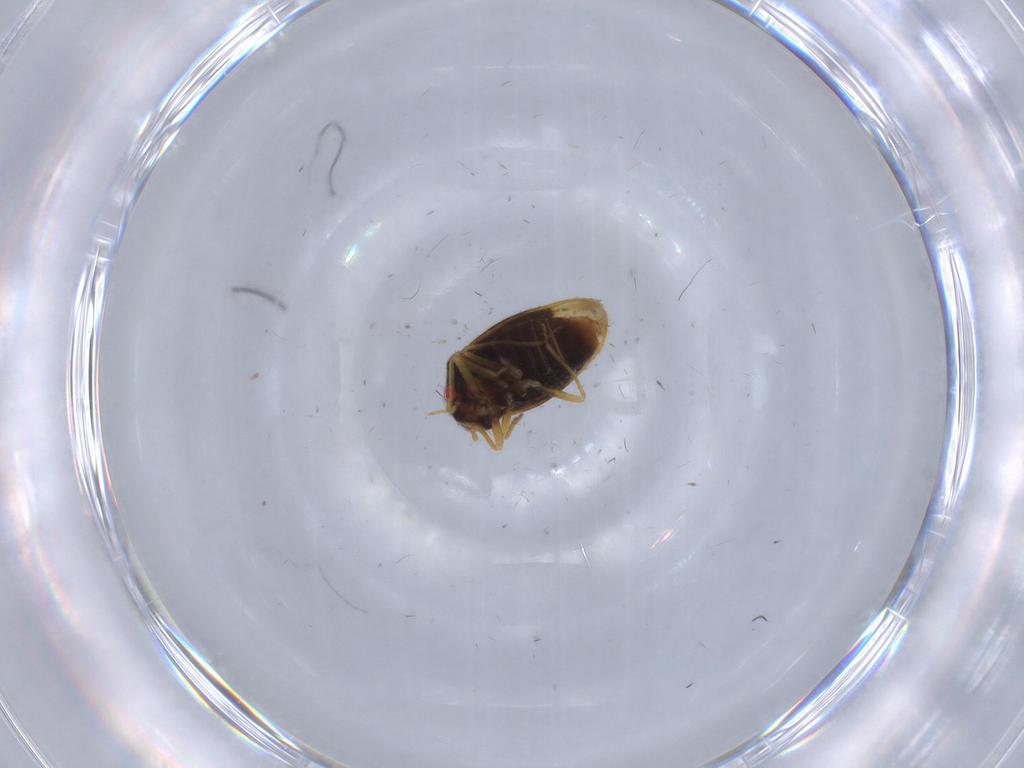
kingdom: Animalia
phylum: Arthropoda
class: Insecta
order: Hemiptera
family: Schizopteridae
